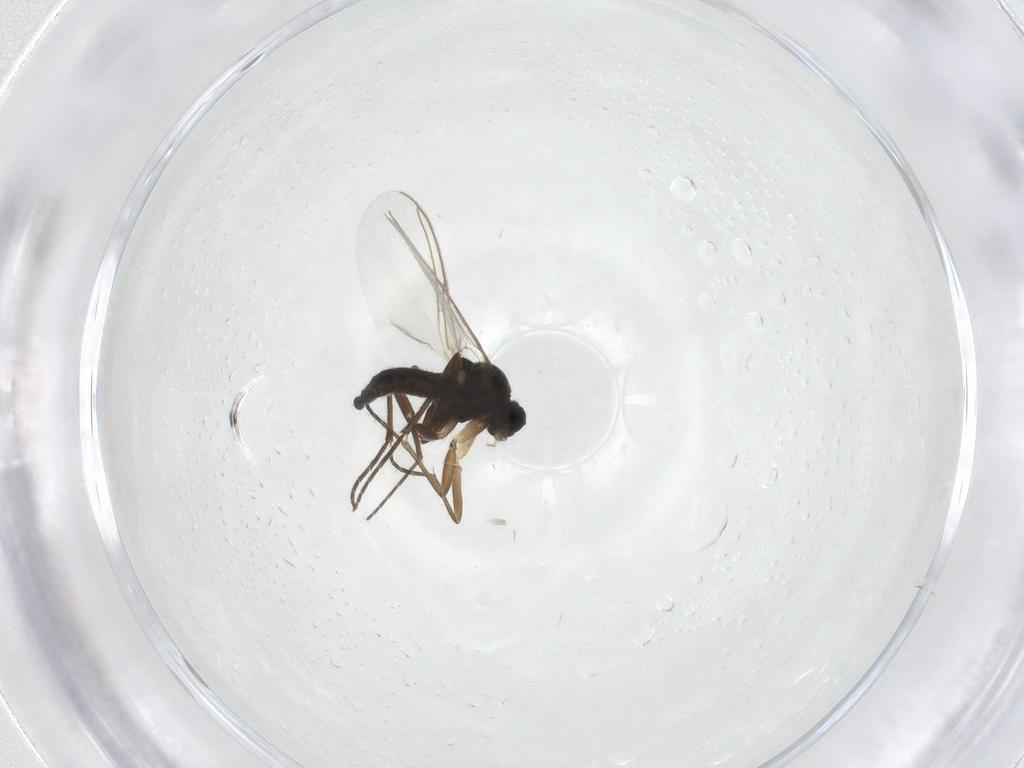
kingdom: Animalia
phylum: Arthropoda
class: Insecta
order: Diptera
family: Sciaridae
